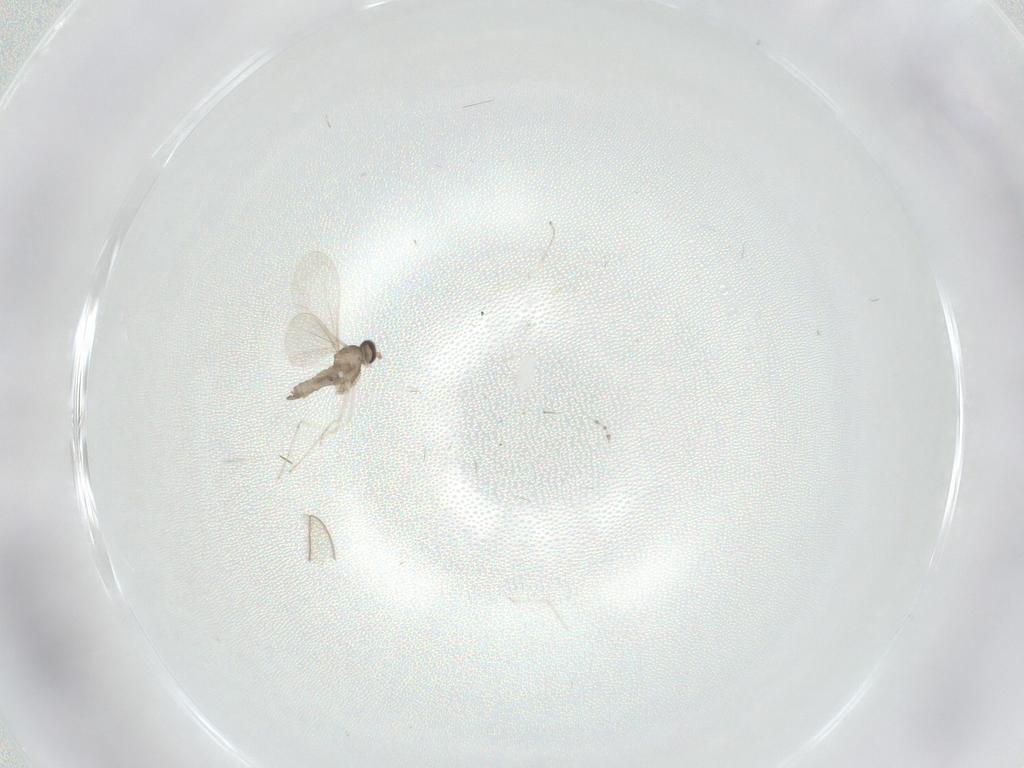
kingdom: Animalia
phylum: Arthropoda
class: Insecta
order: Diptera
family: Cecidomyiidae
